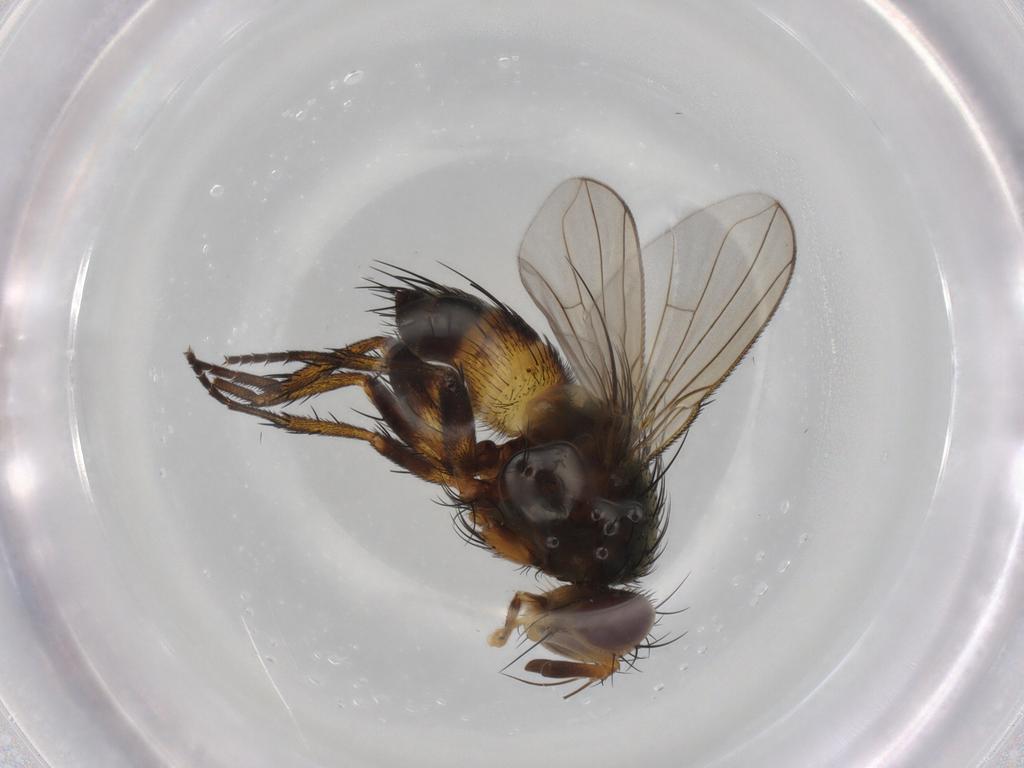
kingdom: Animalia
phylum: Arthropoda
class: Insecta
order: Diptera
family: Tachinidae
